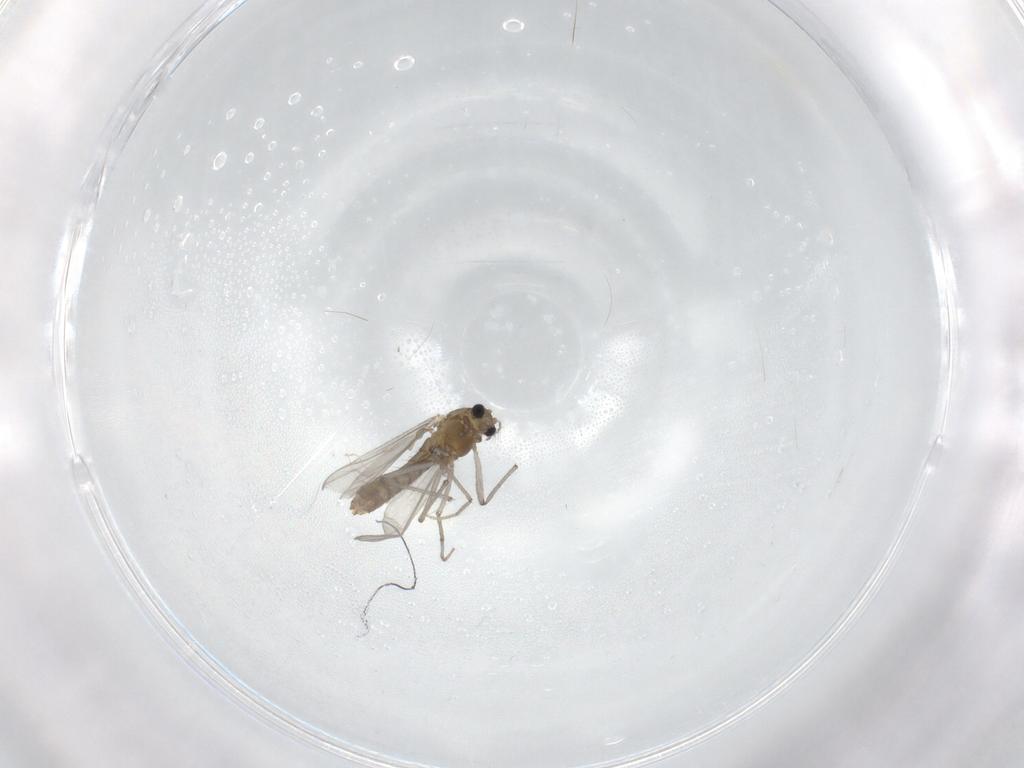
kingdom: Animalia
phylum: Arthropoda
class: Insecta
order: Diptera
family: Chironomidae
